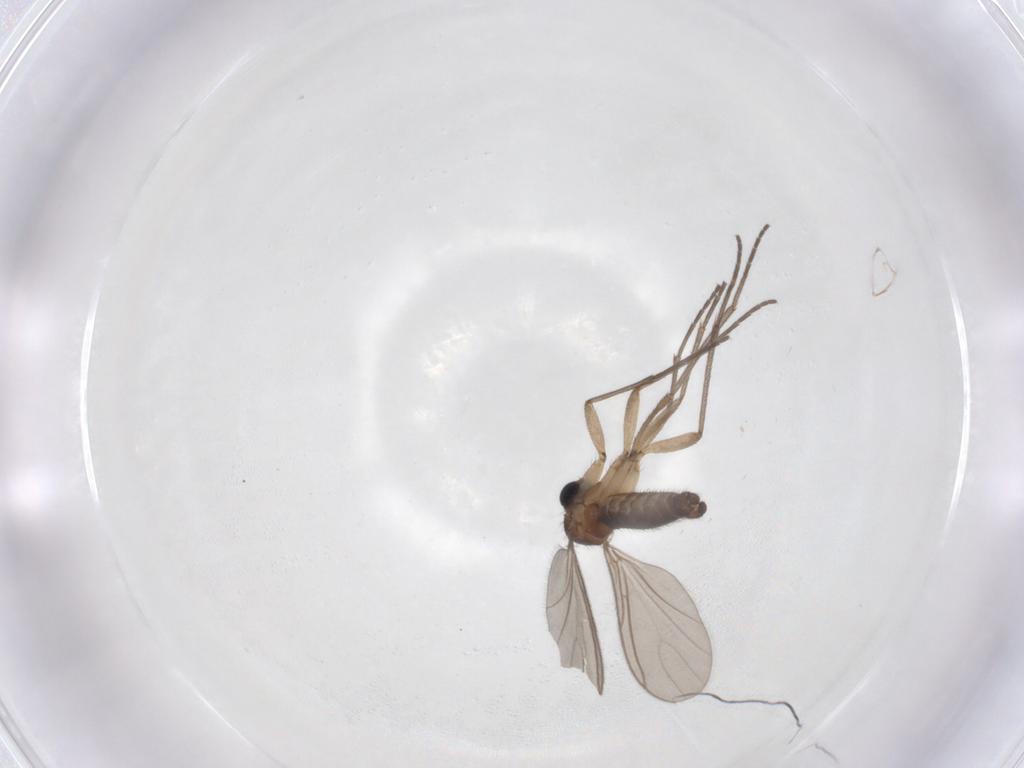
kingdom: Animalia
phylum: Arthropoda
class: Insecta
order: Diptera
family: Sciaridae
